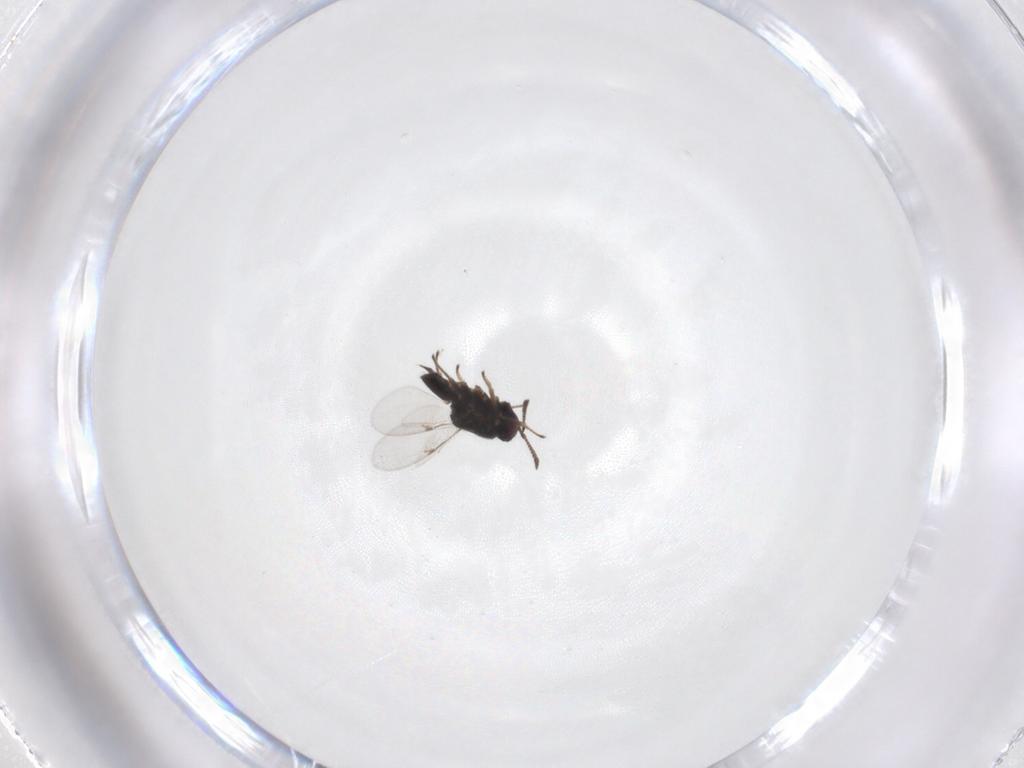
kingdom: Animalia
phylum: Arthropoda
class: Insecta
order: Hymenoptera
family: Encyrtidae
